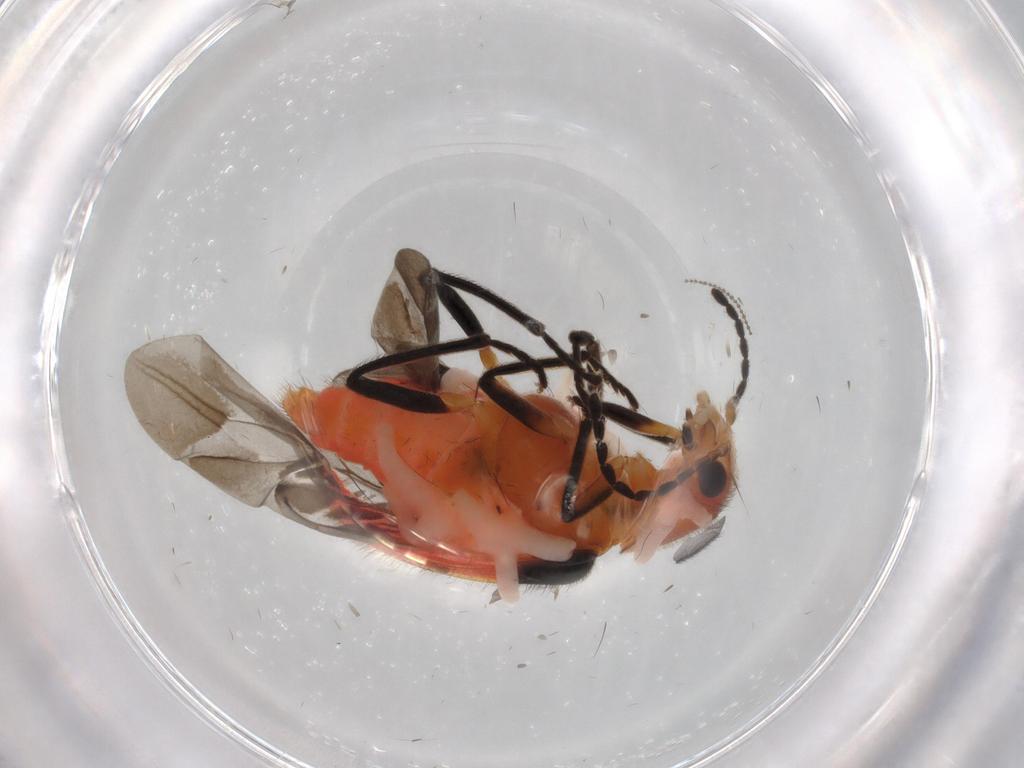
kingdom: Animalia
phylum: Arthropoda
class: Insecta
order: Coleoptera
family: Melyridae
